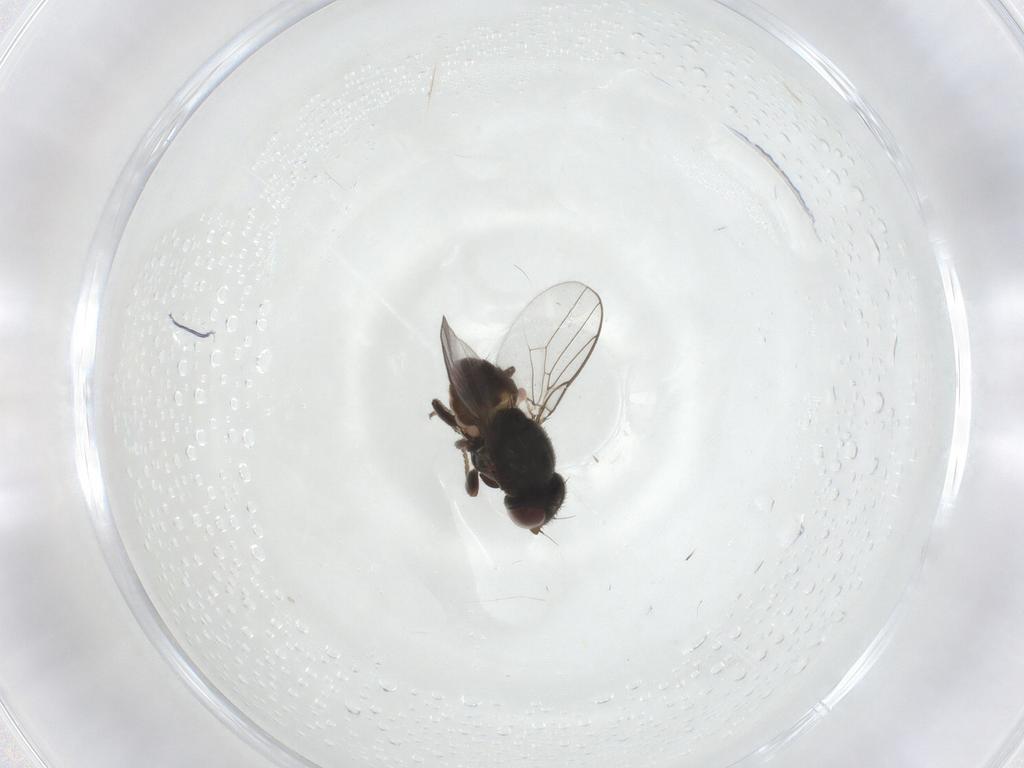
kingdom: Animalia
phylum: Arthropoda
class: Insecta
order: Diptera
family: Chloropidae
